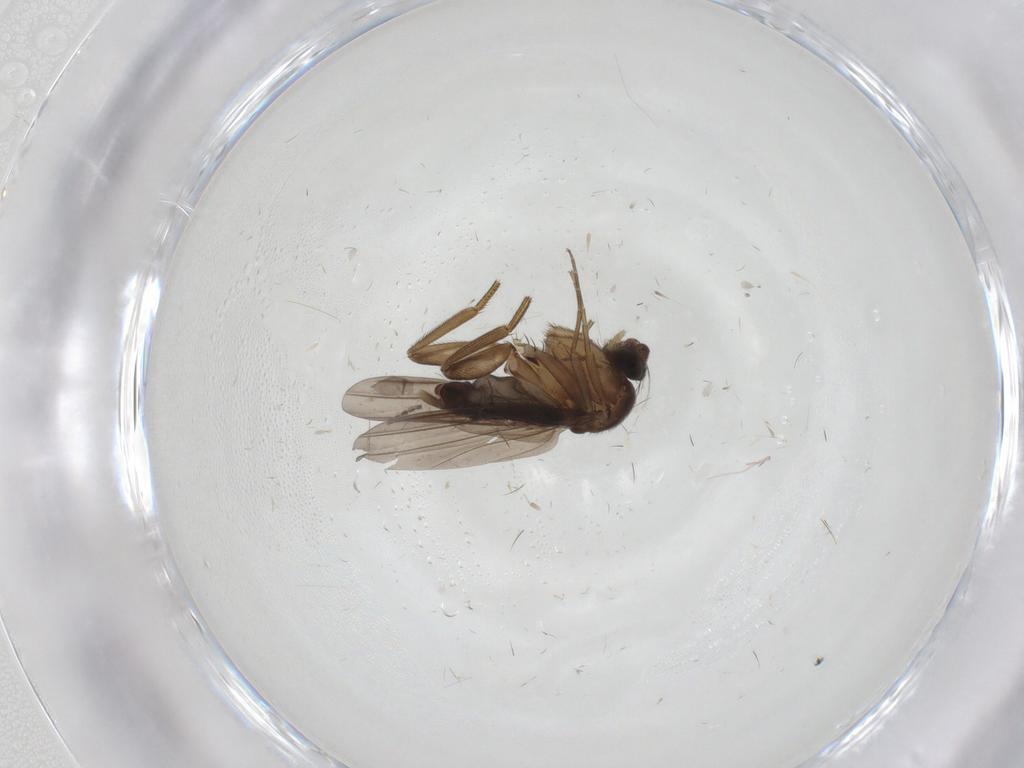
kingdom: Animalia
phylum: Arthropoda
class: Insecta
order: Diptera
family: Sciaridae
